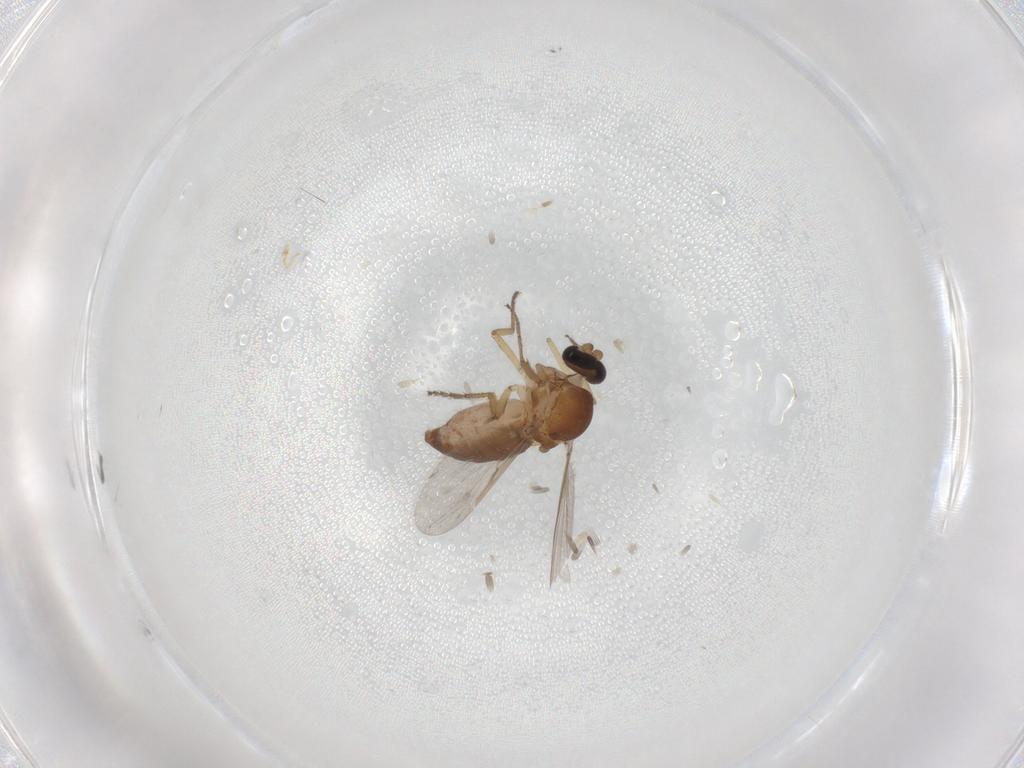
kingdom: Animalia
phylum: Arthropoda
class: Insecta
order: Diptera
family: Ceratopogonidae
